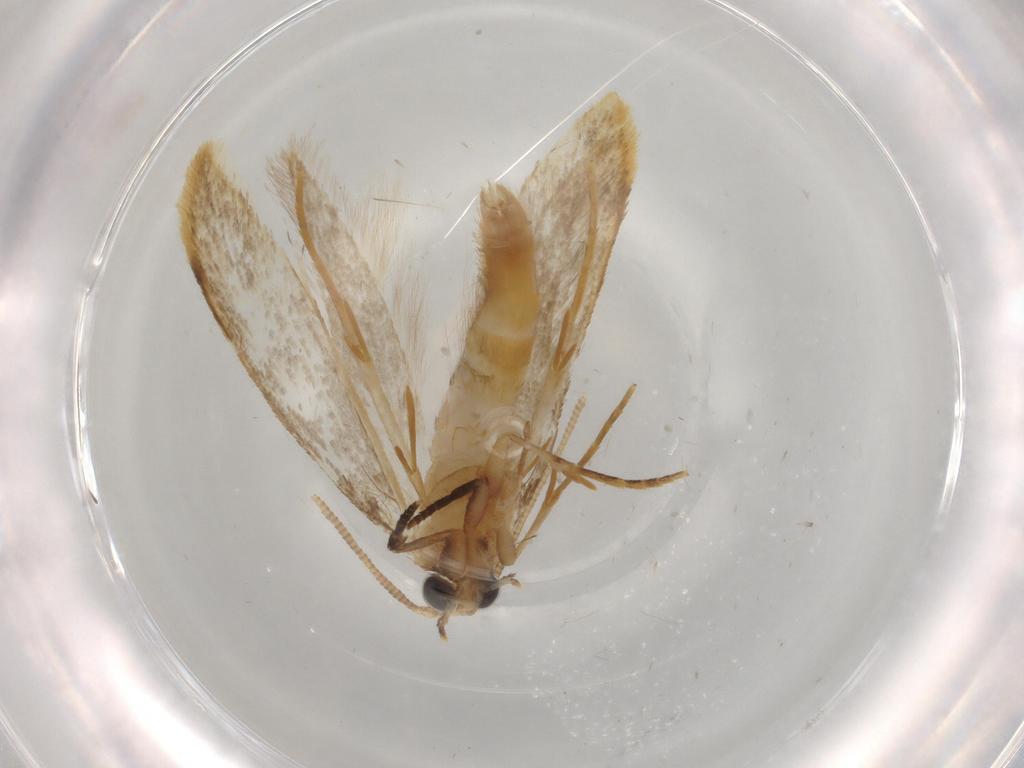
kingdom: Animalia
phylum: Arthropoda
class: Insecta
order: Lepidoptera
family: Tineidae
